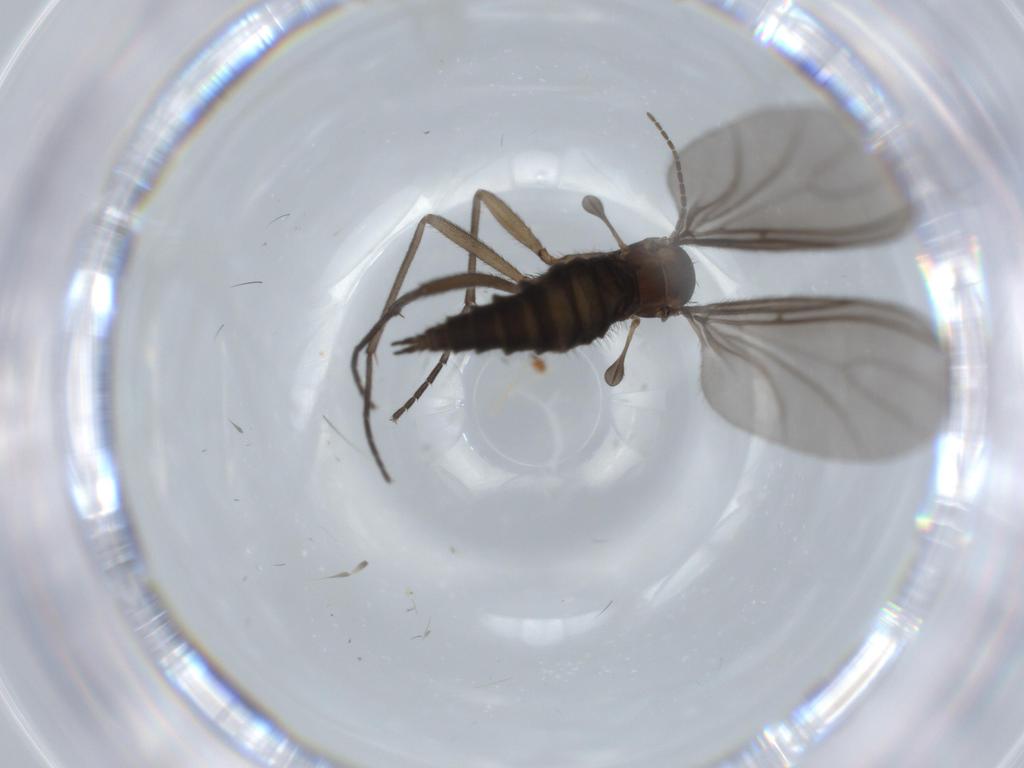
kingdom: Animalia
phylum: Arthropoda
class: Insecta
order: Diptera
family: Sciaridae
